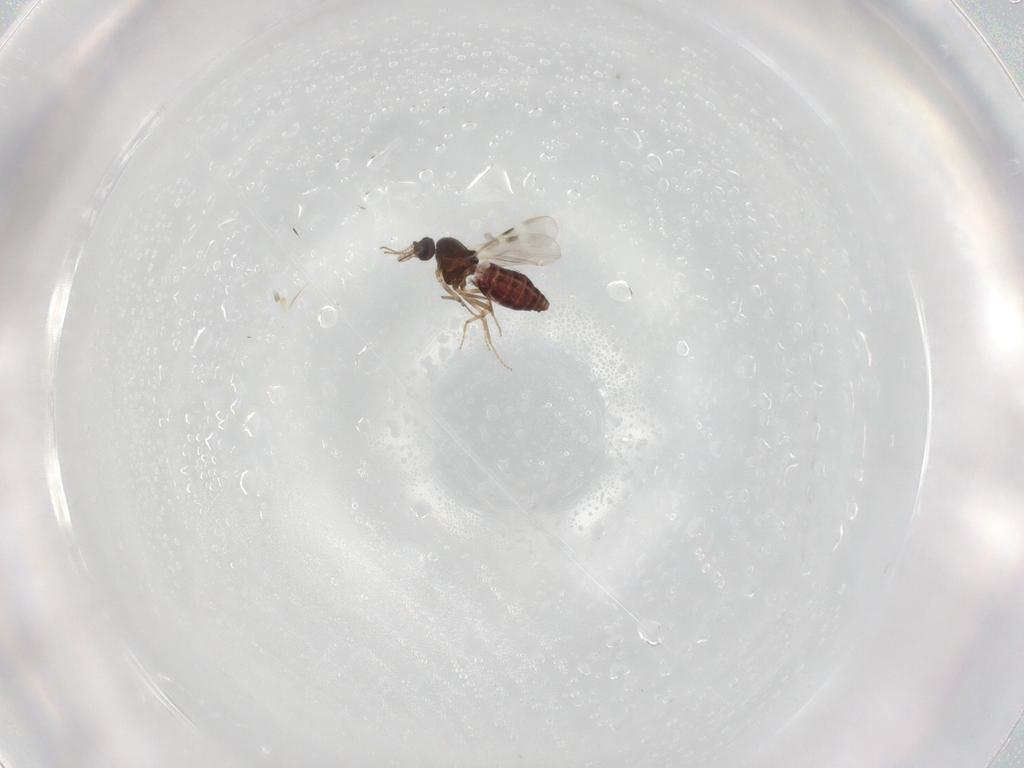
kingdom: Animalia
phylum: Arthropoda
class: Insecta
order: Diptera
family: Ceratopogonidae
